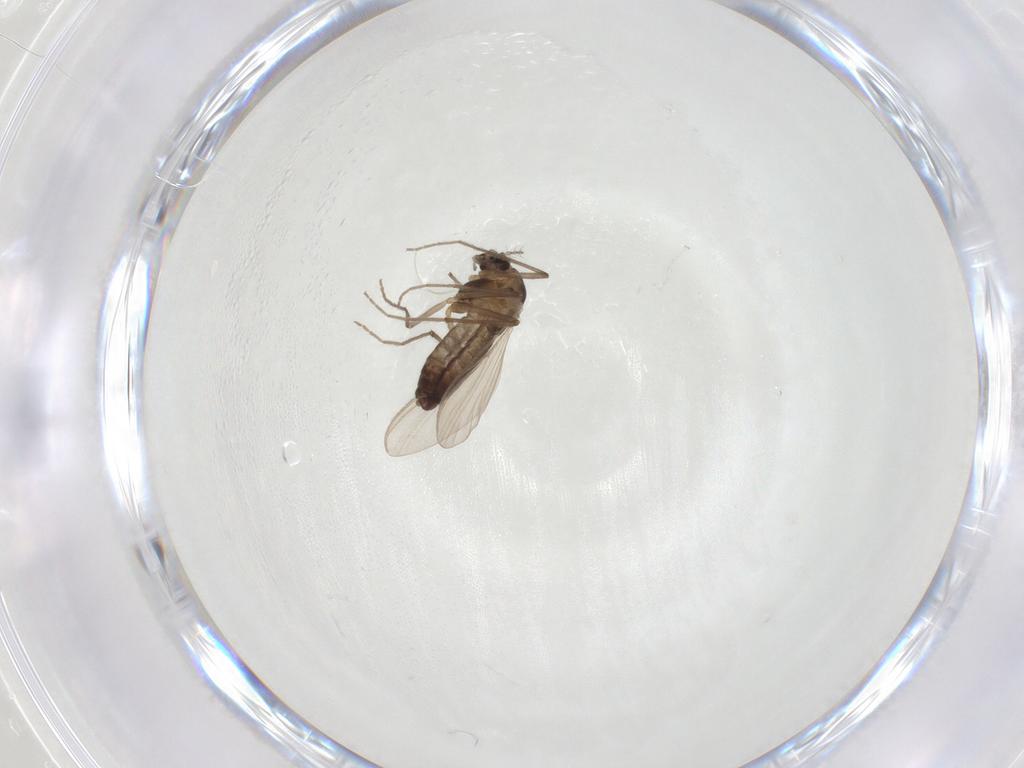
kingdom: Animalia
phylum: Arthropoda
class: Insecta
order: Diptera
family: Chironomidae
